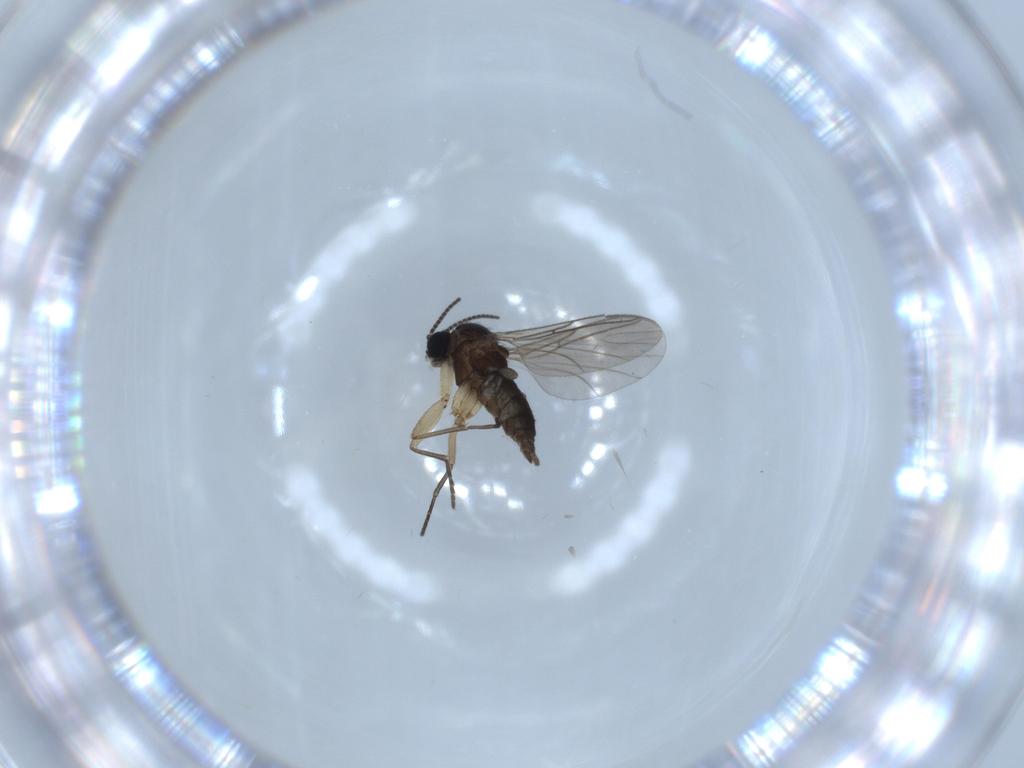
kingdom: Animalia
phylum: Arthropoda
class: Insecta
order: Diptera
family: Sciaridae
